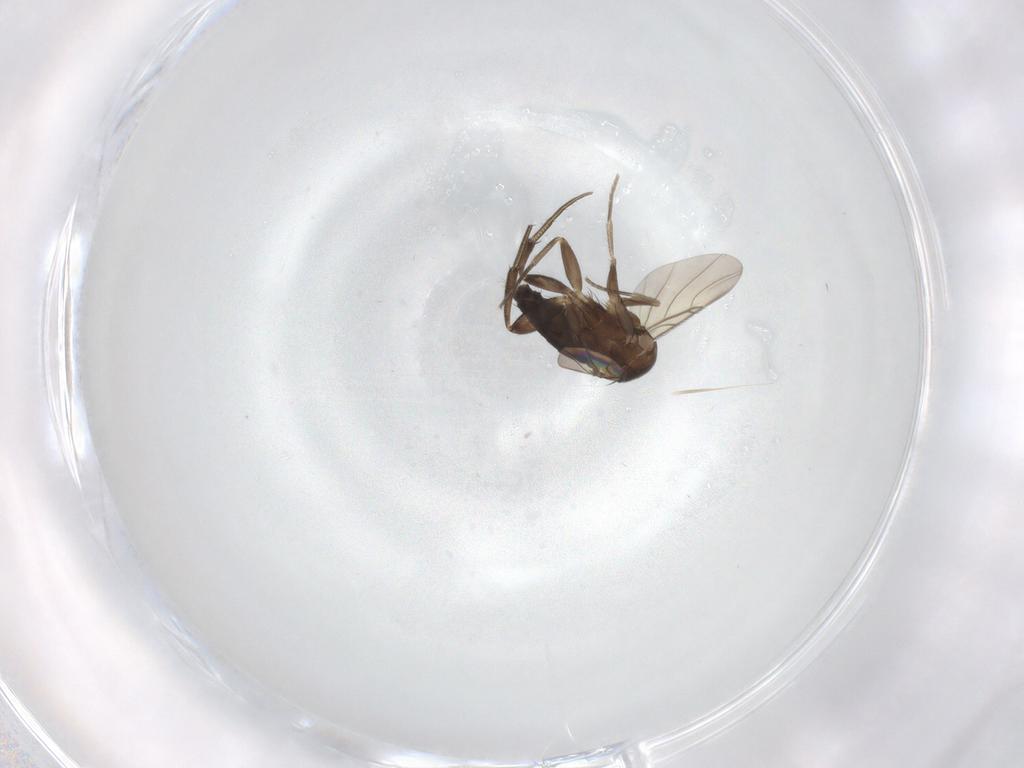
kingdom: Animalia
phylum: Arthropoda
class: Insecta
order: Diptera
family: Phoridae
